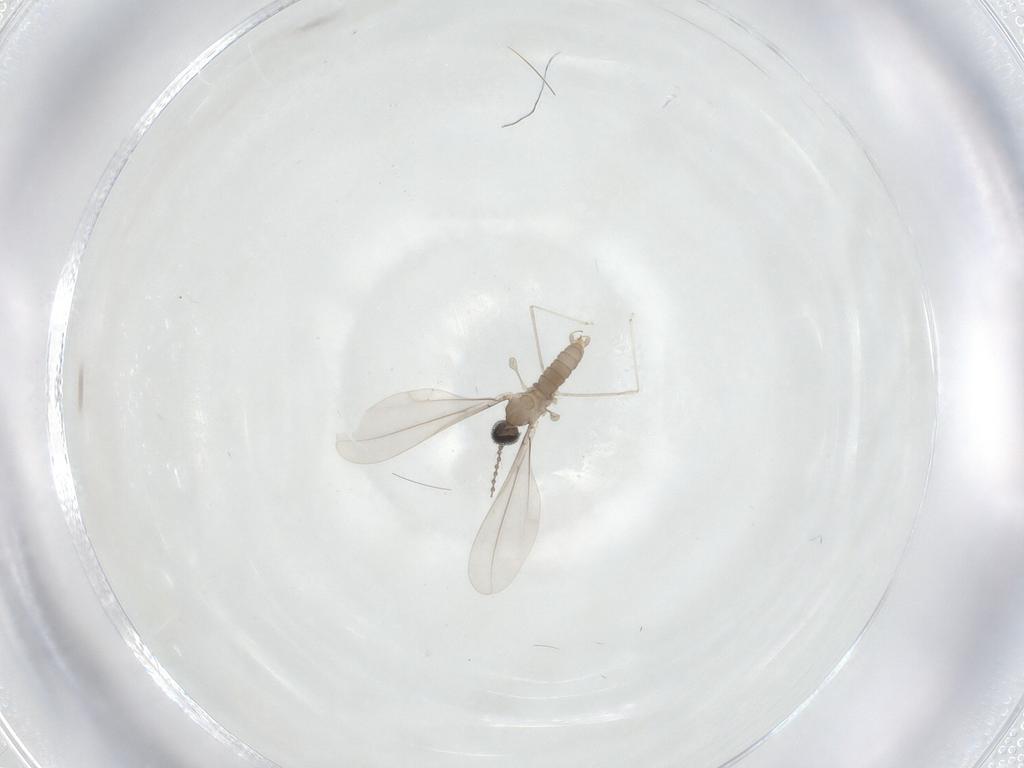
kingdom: Animalia
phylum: Arthropoda
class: Insecta
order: Diptera
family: Cecidomyiidae
